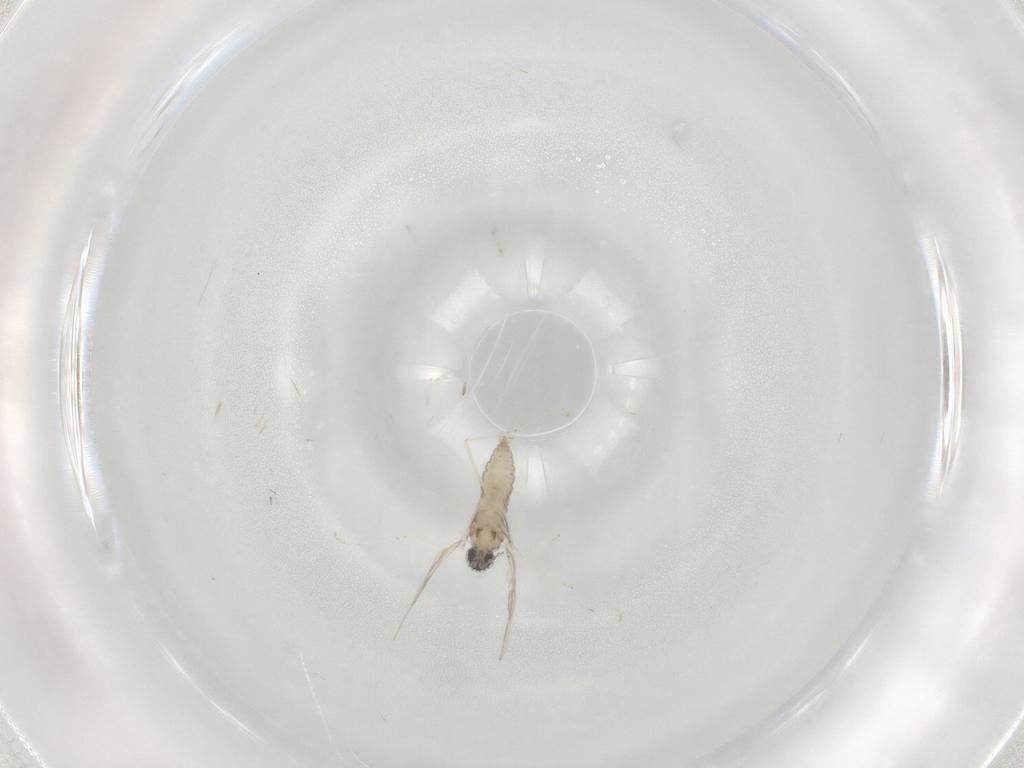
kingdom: Animalia
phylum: Arthropoda
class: Insecta
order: Diptera
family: Cecidomyiidae
